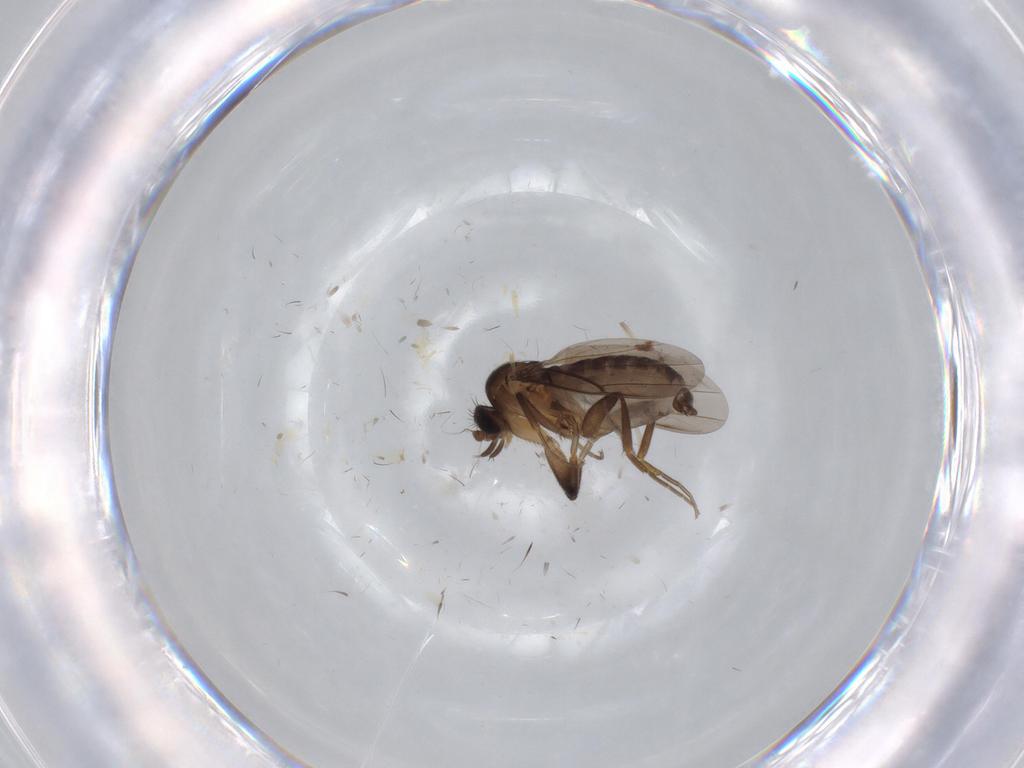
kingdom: Animalia
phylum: Arthropoda
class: Insecta
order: Diptera
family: Phoridae
